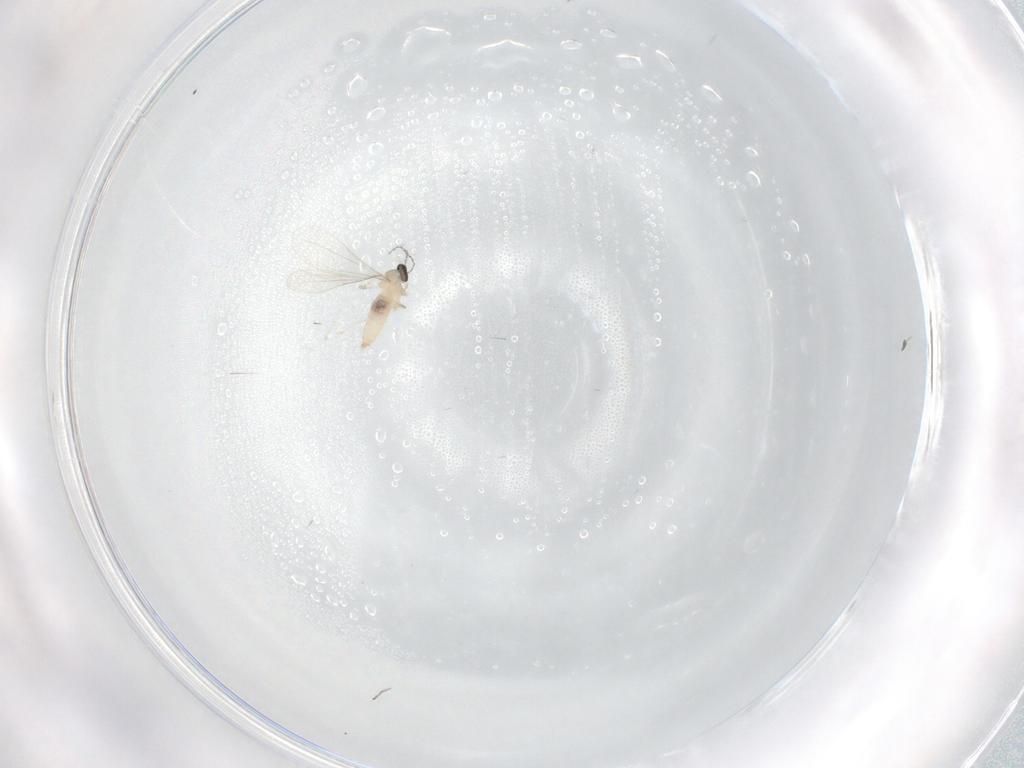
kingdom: Animalia
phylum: Arthropoda
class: Insecta
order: Diptera
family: Cecidomyiidae
